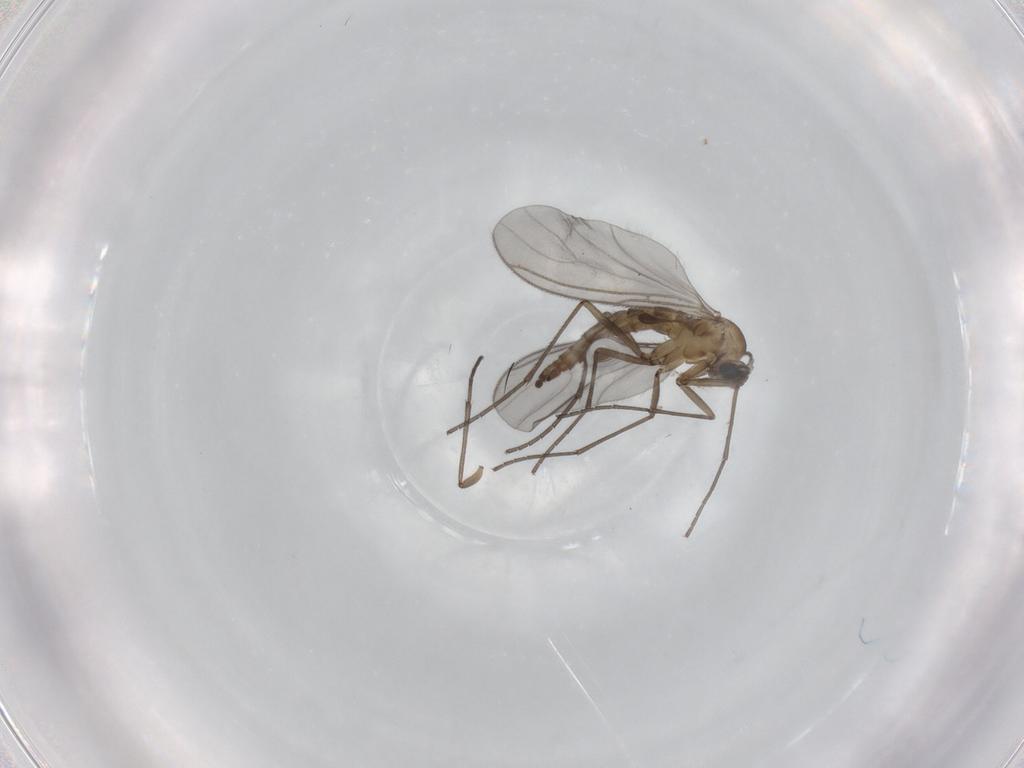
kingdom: Animalia
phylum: Arthropoda
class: Insecta
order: Diptera
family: Sciaridae
